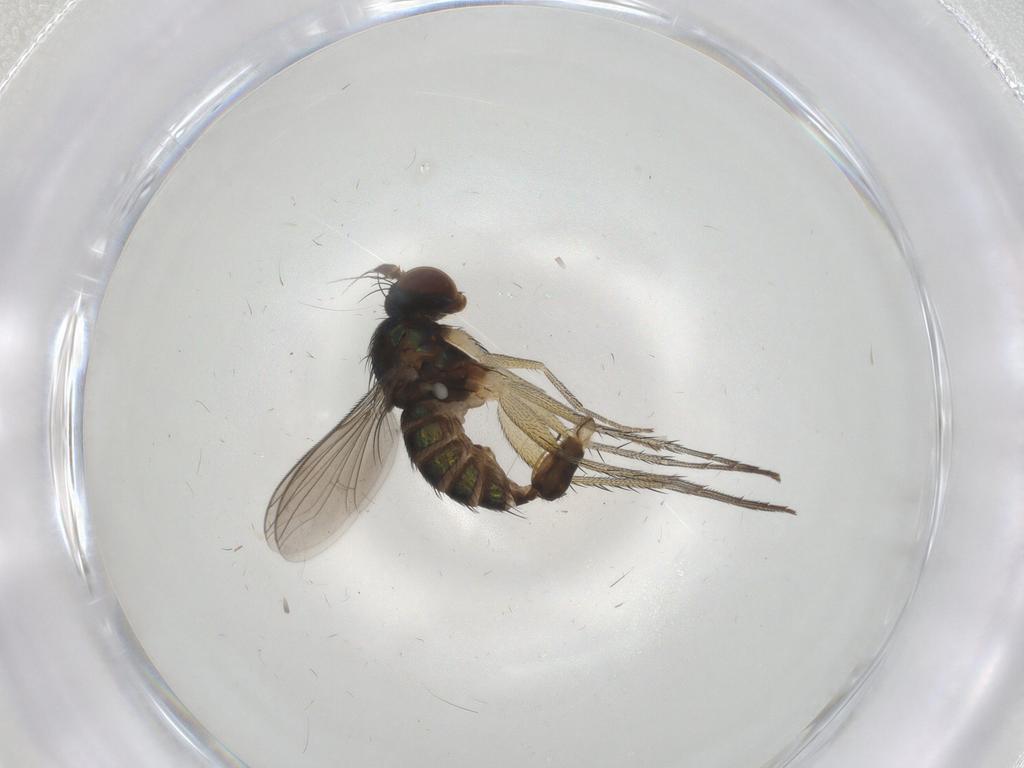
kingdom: Animalia
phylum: Arthropoda
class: Insecta
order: Diptera
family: Dolichopodidae
